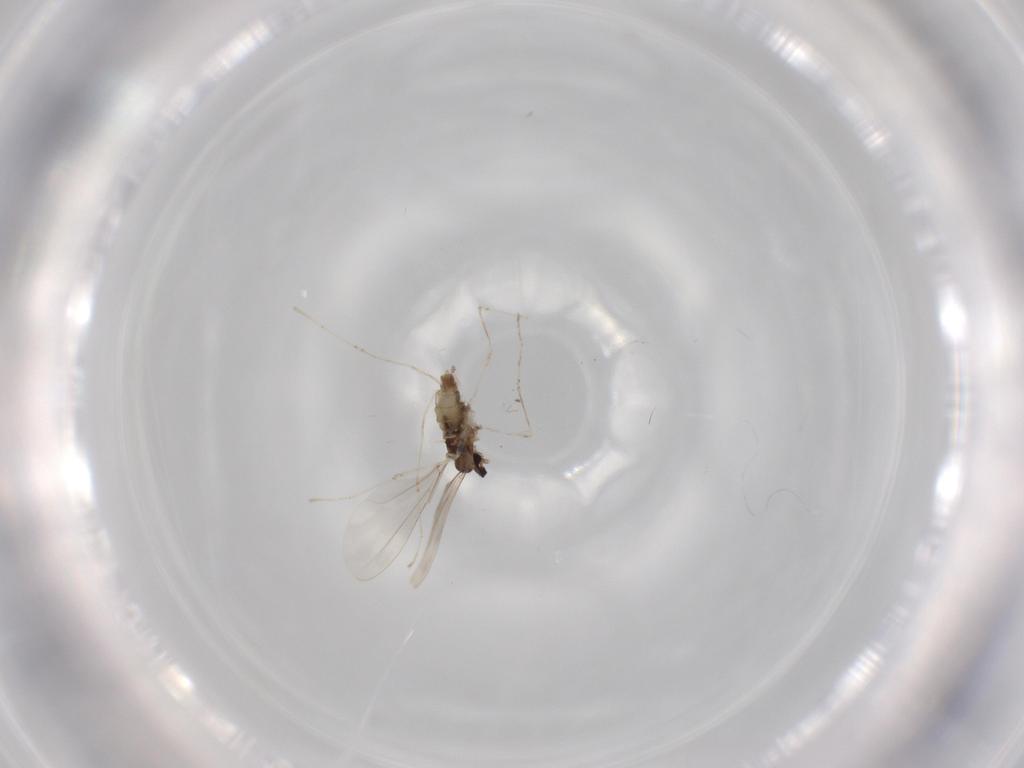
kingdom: Animalia
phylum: Arthropoda
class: Insecta
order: Diptera
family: Cecidomyiidae
